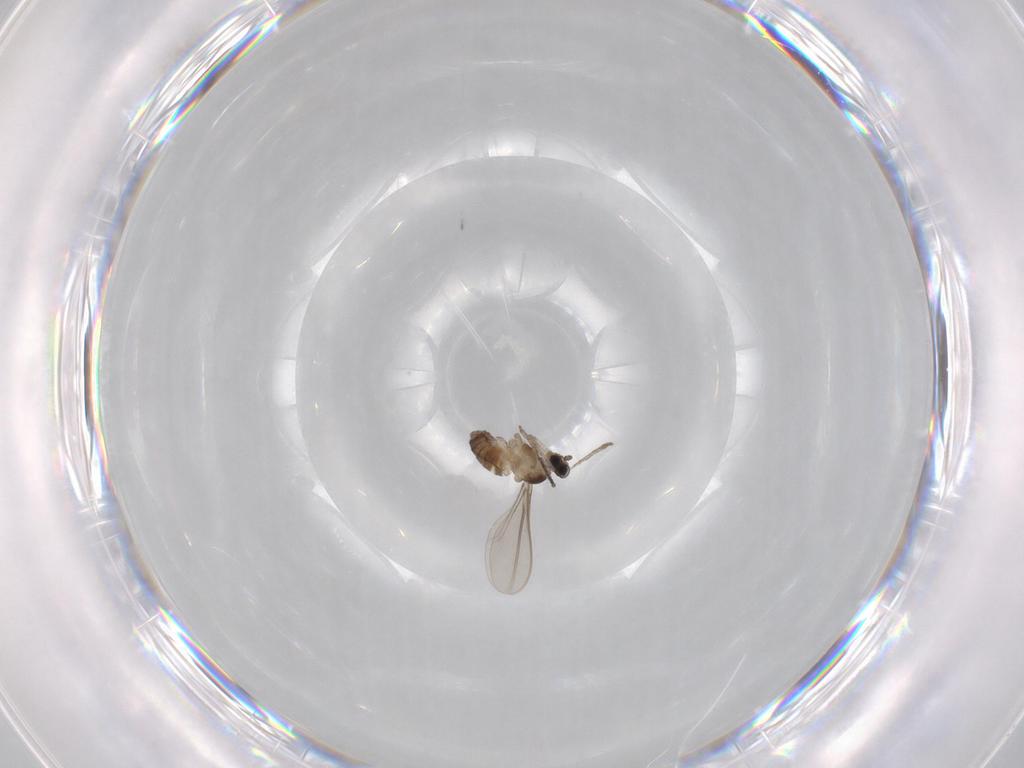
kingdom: Animalia
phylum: Arthropoda
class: Insecta
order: Diptera
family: Cecidomyiidae
